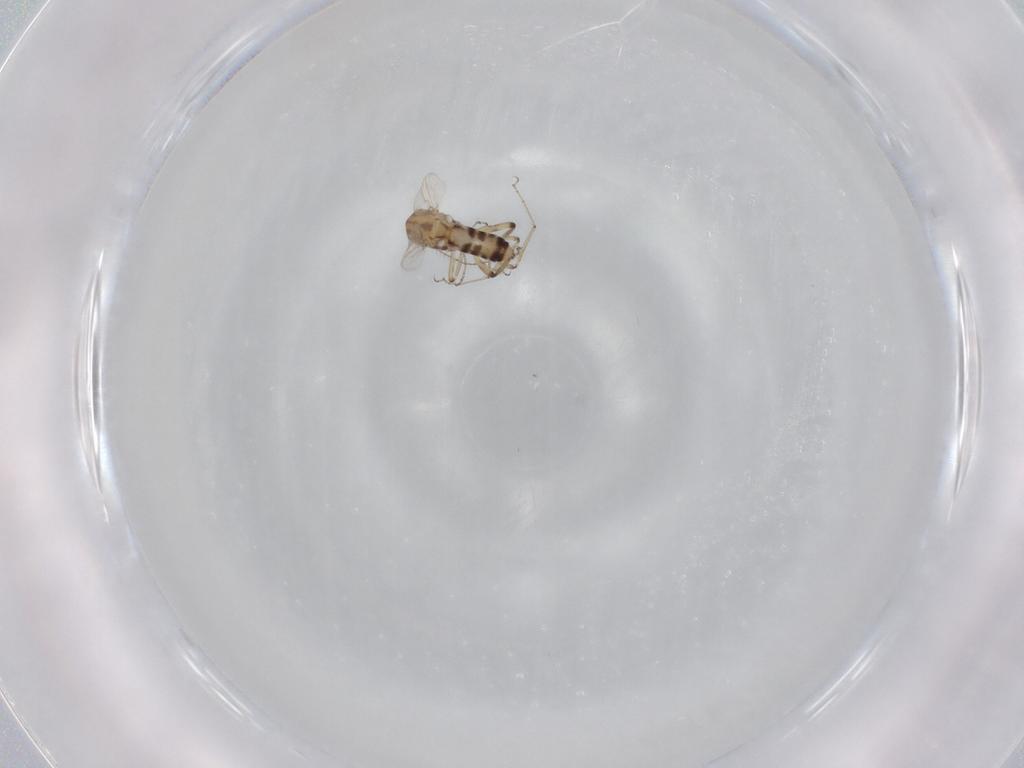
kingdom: Animalia
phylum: Arthropoda
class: Insecta
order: Diptera
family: Ceratopogonidae
